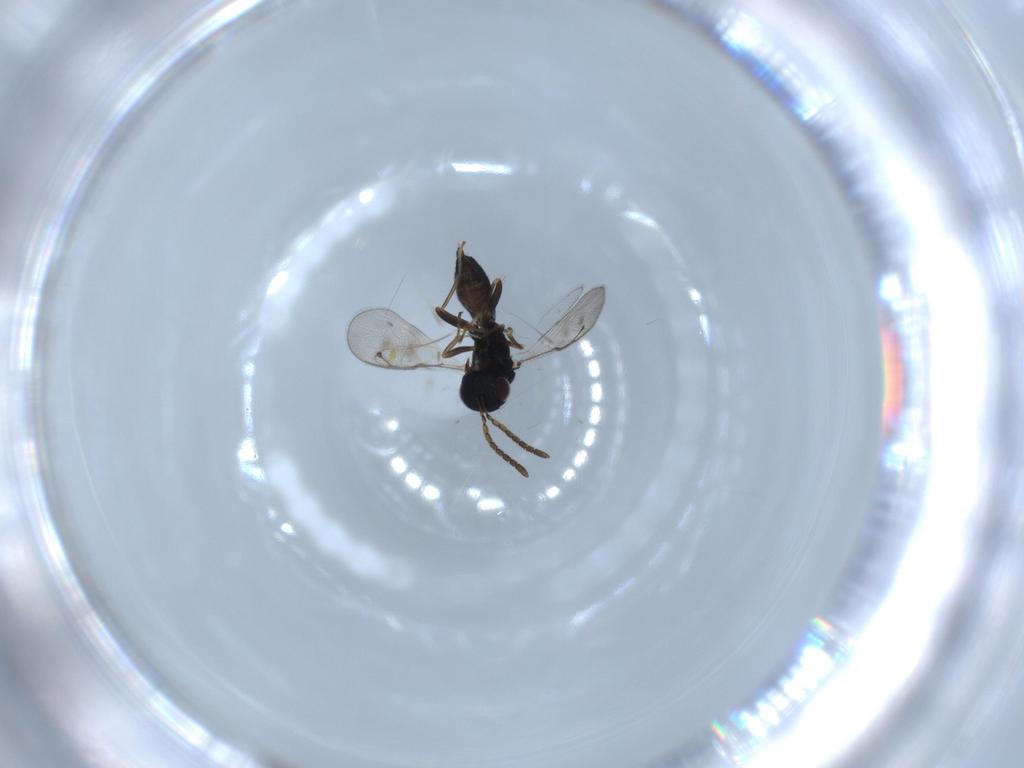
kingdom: Animalia
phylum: Arthropoda
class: Insecta
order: Hymenoptera
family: Pteromalidae
